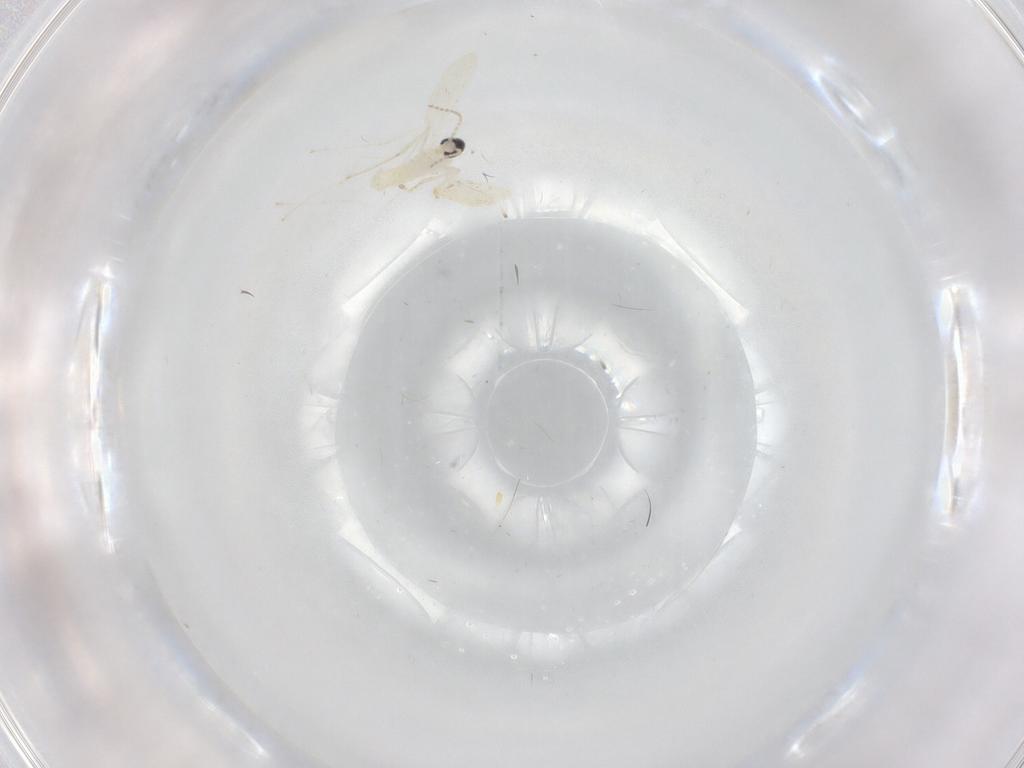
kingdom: Animalia
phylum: Arthropoda
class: Insecta
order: Diptera
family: Cecidomyiidae
